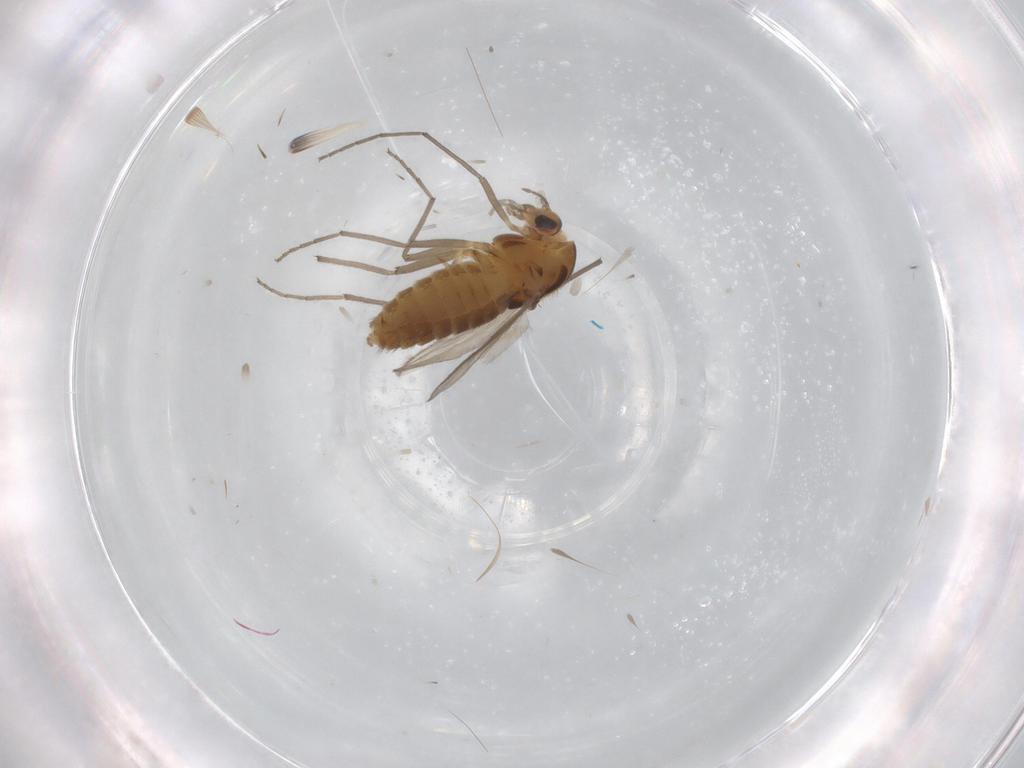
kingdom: Animalia
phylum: Arthropoda
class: Insecta
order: Diptera
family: Chironomidae
